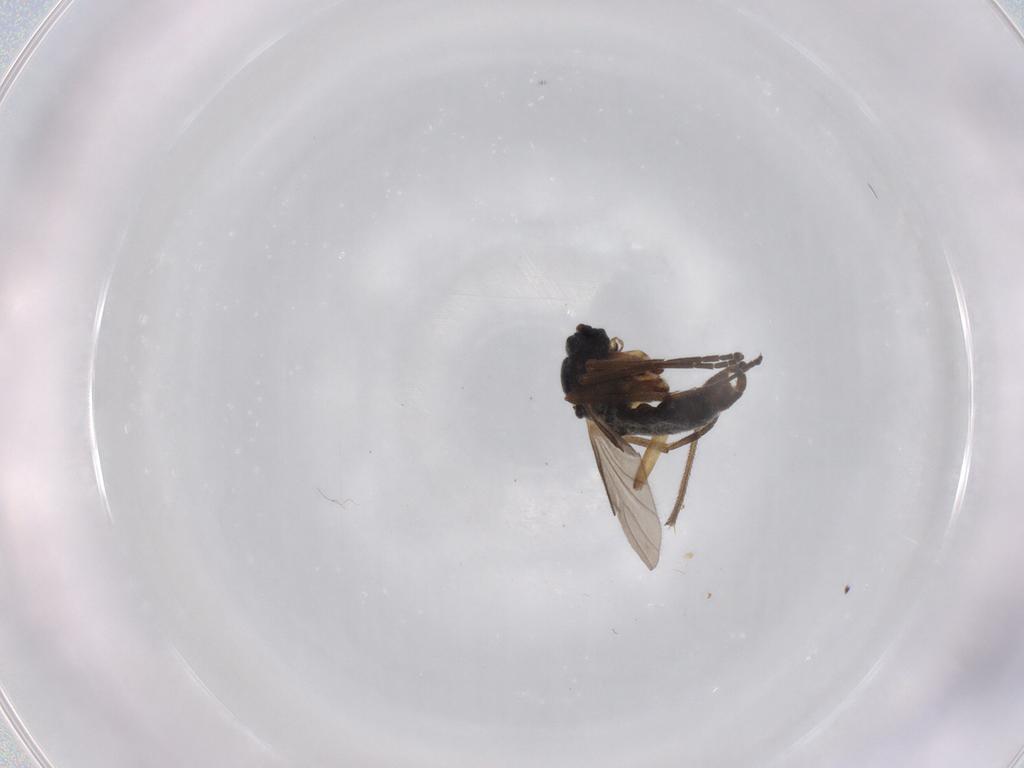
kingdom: Animalia
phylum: Arthropoda
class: Insecta
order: Diptera
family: Sciaridae
